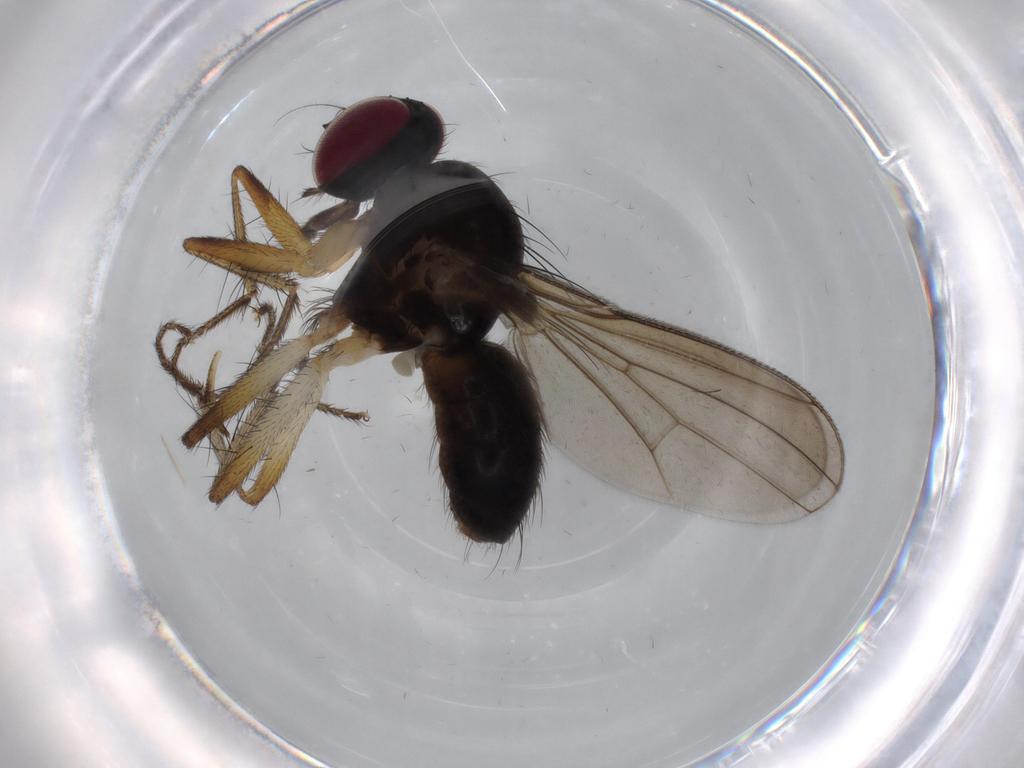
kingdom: Animalia
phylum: Arthropoda
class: Insecta
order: Diptera
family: Anthomyiidae
